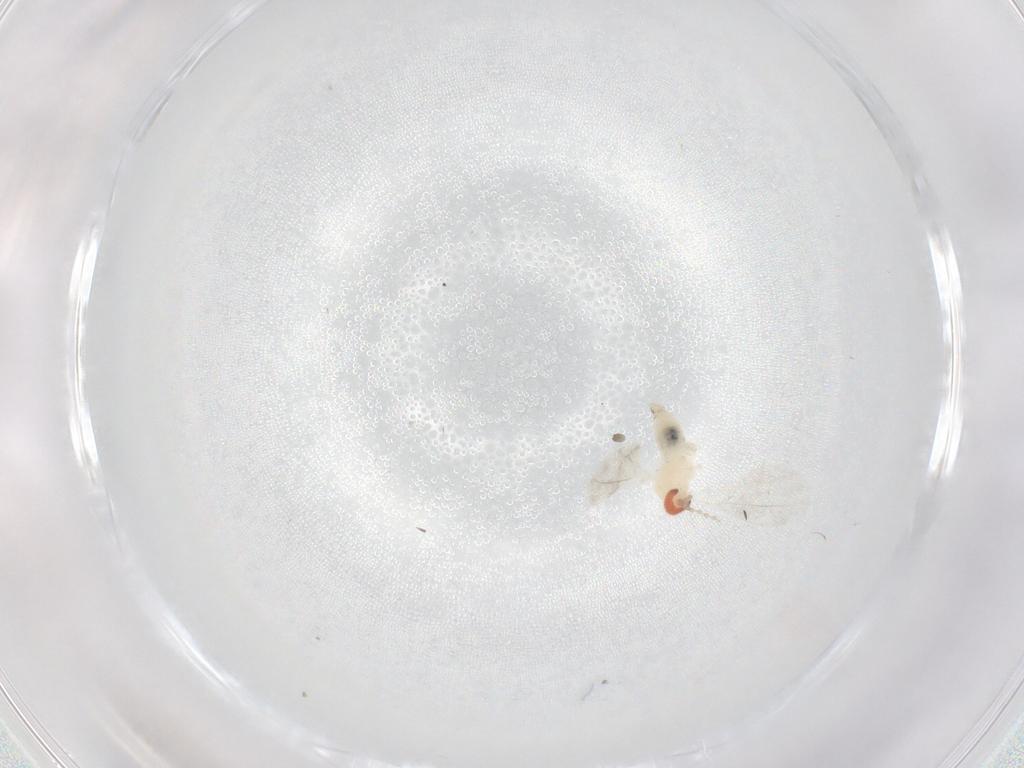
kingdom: Animalia
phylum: Arthropoda
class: Insecta
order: Diptera
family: Cecidomyiidae
